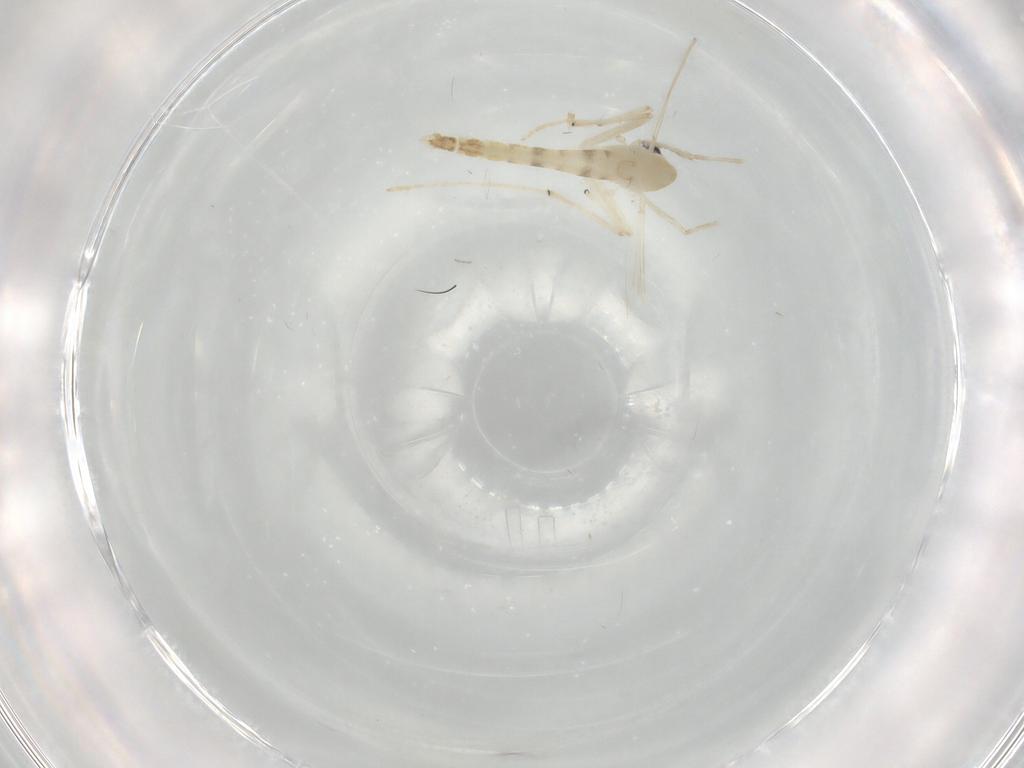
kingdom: Animalia
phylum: Arthropoda
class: Insecta
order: Diptera
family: Chironomidae
